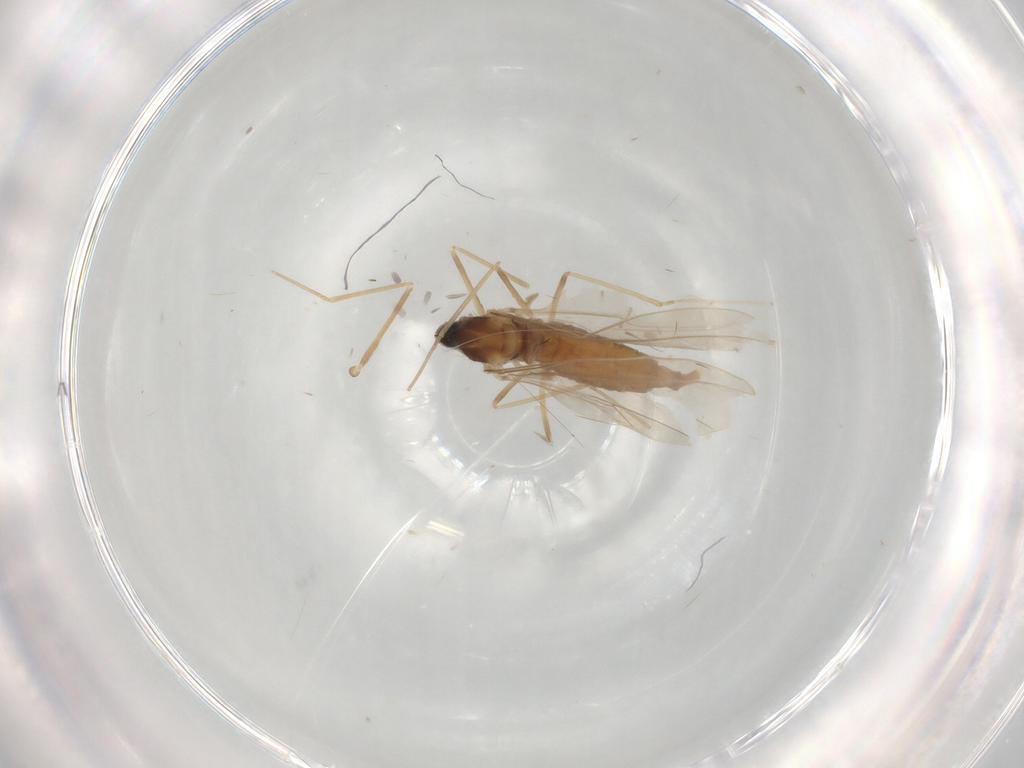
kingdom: Animalia
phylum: Arthropoda
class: Insecta
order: Diptera
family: Cecidomyiidae
